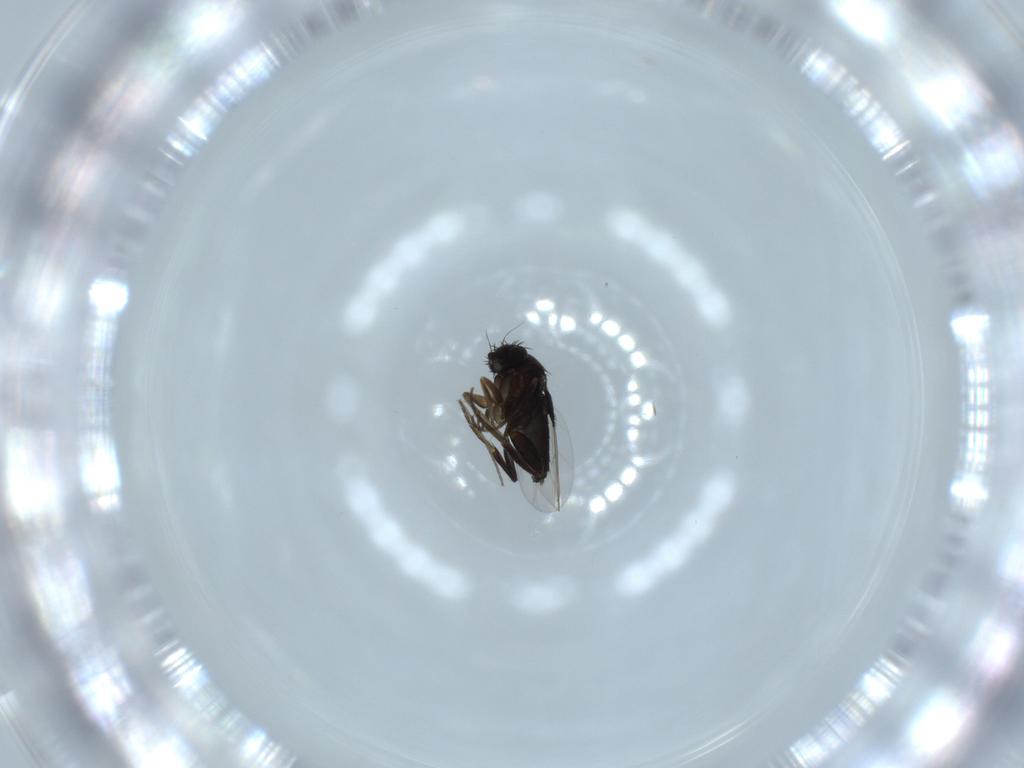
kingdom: Animalia
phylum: Arthropoda
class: Insecta
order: Diptera
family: Phoridae
